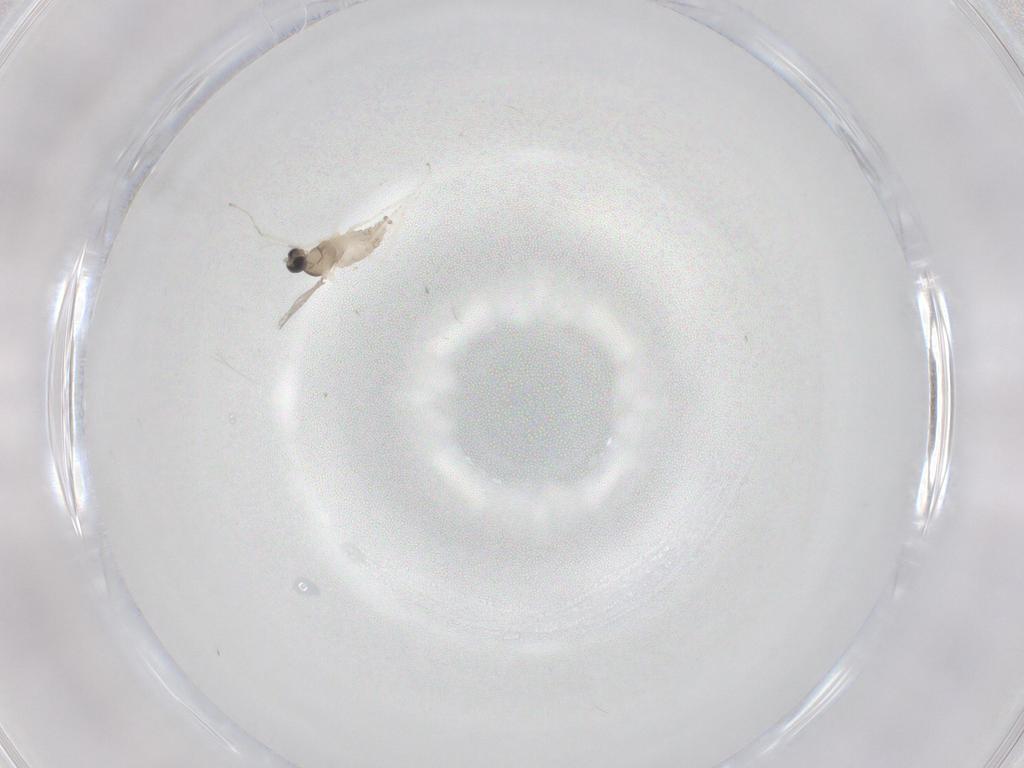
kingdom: Animalia
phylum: Arthropoda
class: Insecta
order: Diptera
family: Cecidomyiidae
